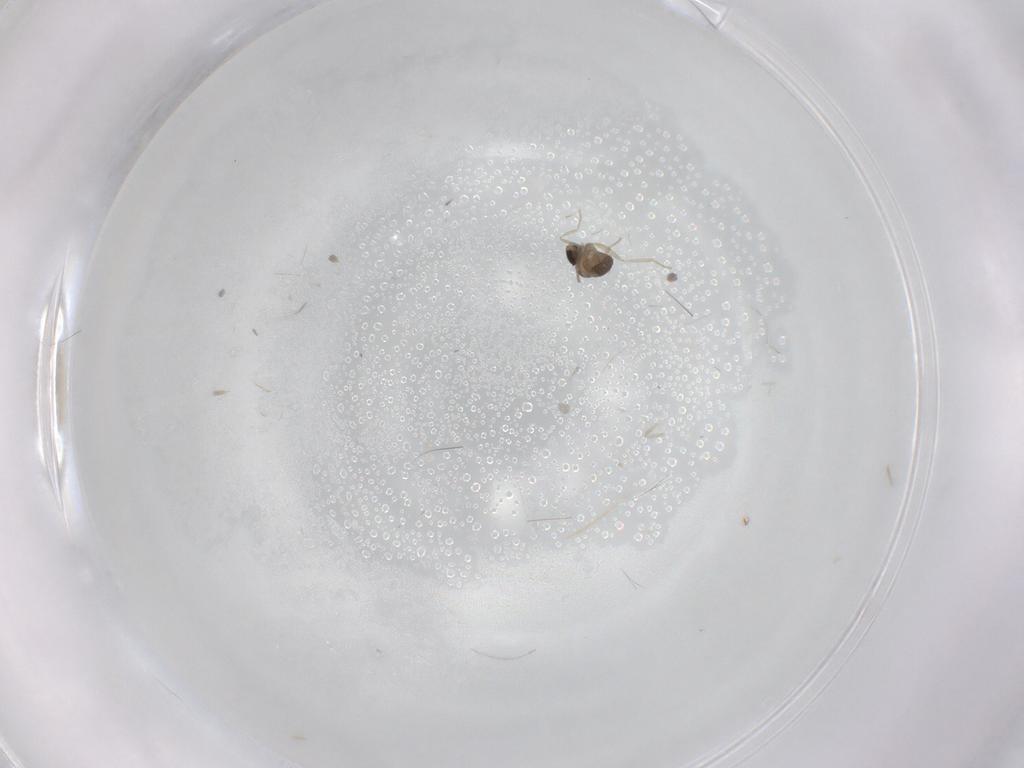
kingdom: Animalia
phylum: Arthropoda
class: Insecta
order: Diptera
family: Cecidomyiidae
